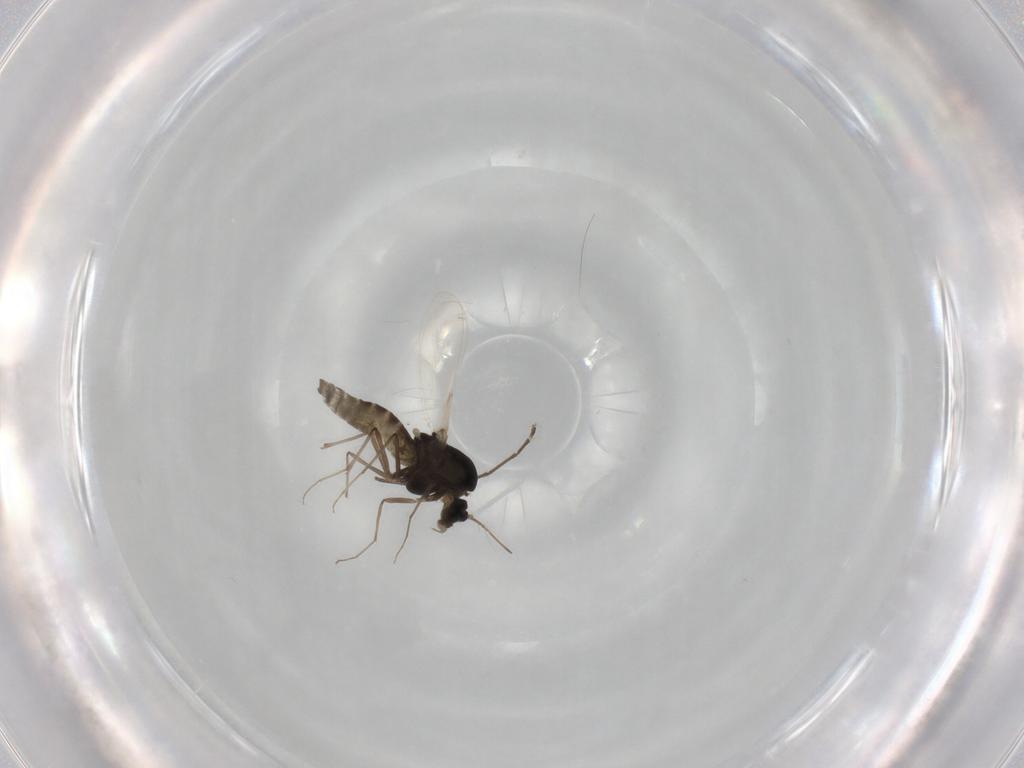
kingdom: Animalia
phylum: Arthropoda
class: Insecta
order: Diptera
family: Chironomidae
